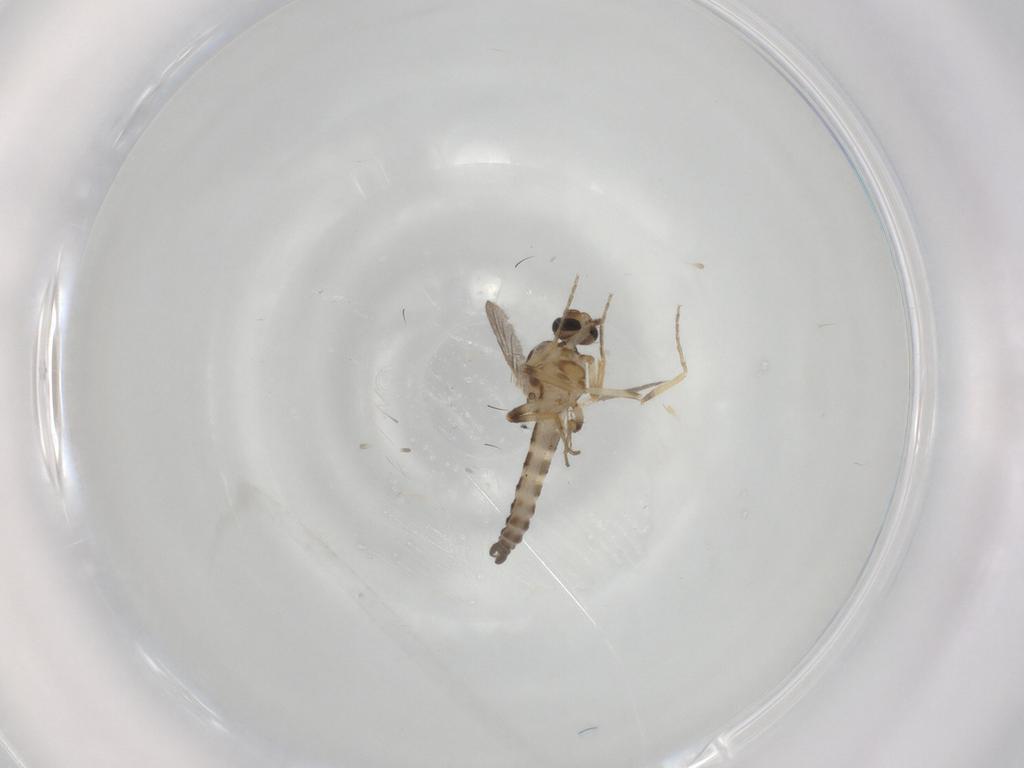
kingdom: Animalia
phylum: Arthropoda
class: Insecta
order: Diptera
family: Ceratopogonidae
